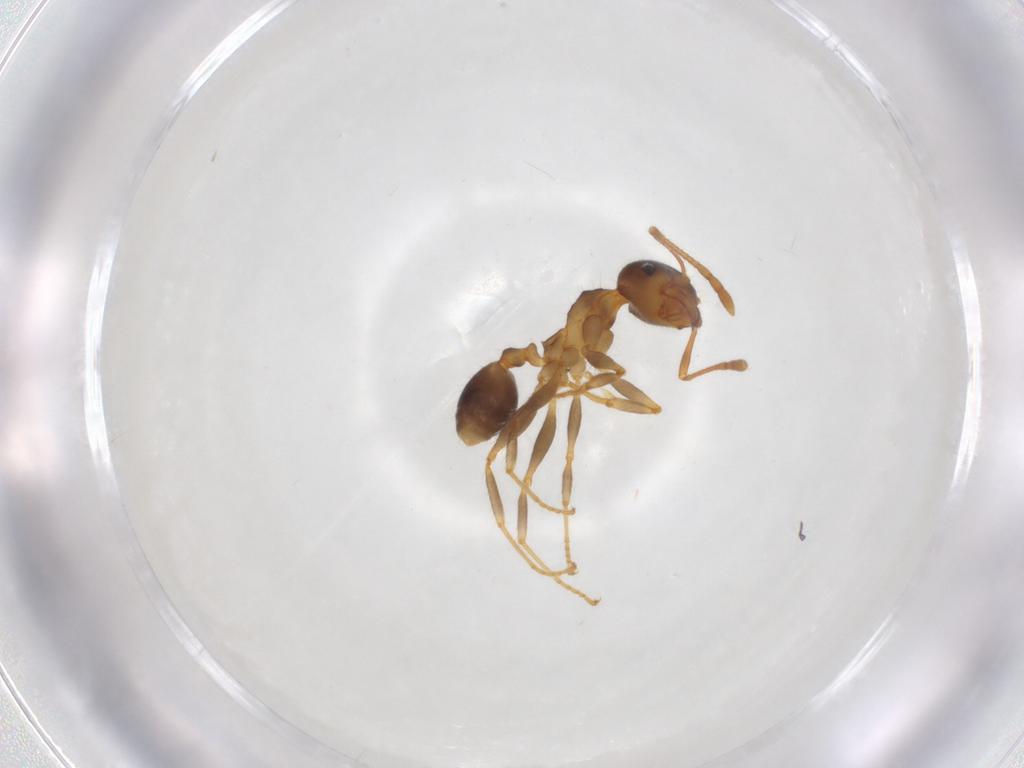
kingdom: Animalia
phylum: Arthropoda
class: Insecta
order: Hymenoptera
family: Formicidae
